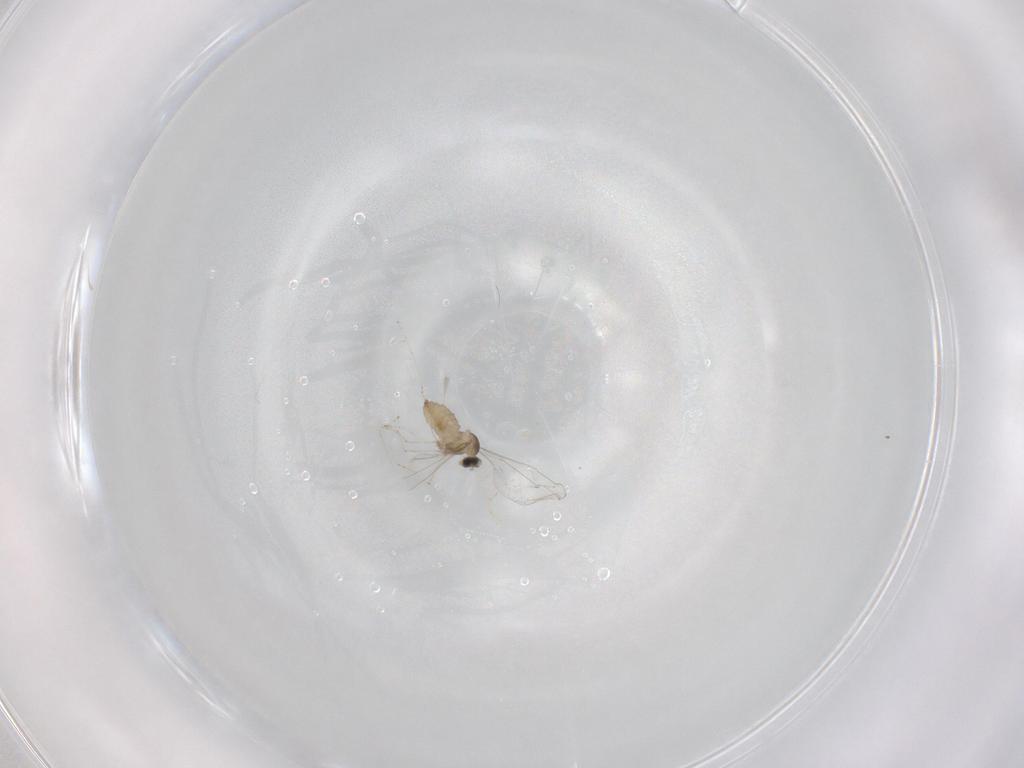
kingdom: Animalia
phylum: Arthropoda
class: Insecta
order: Diptera
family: Cecidomyiidae
